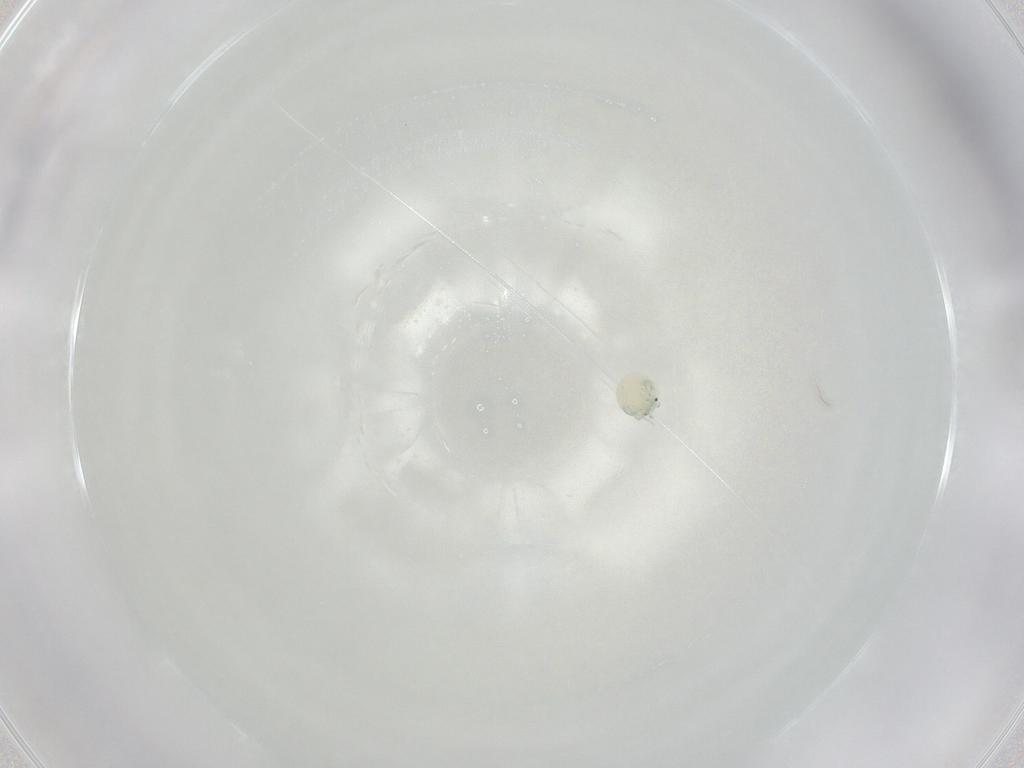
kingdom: Animalia
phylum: Arthropoda
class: Arachnida
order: Trombidiformes
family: Arrenuridae
